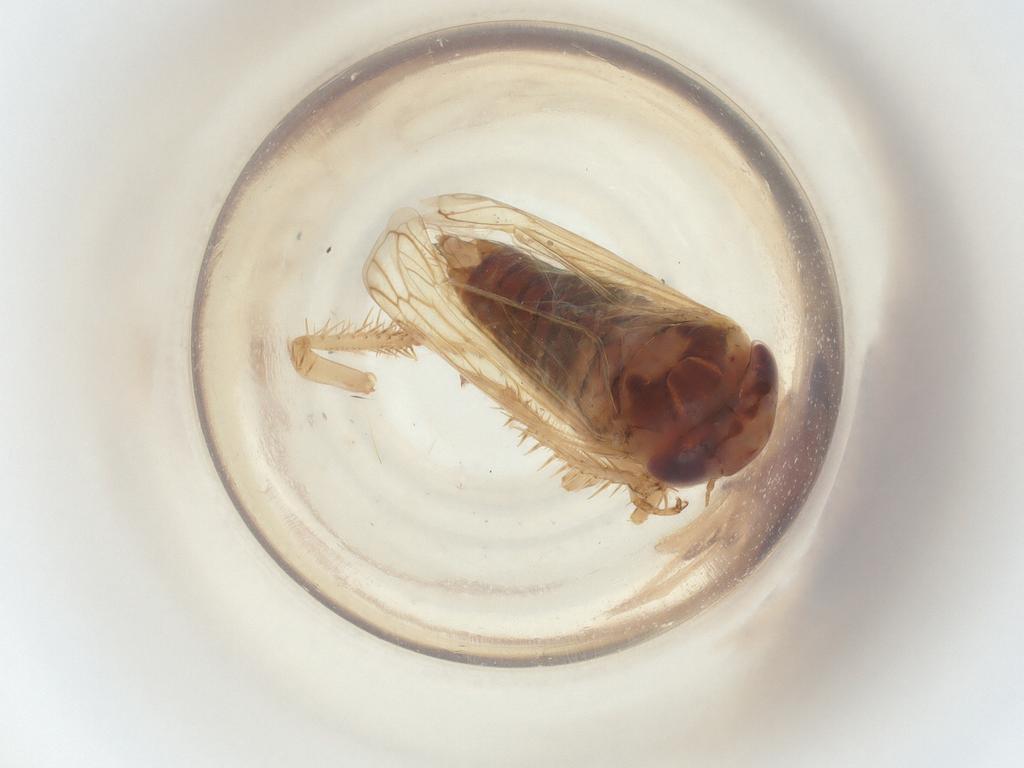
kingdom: Animalia
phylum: Arthropoda
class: Insecta
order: Hemiptera
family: Cicadellidae
